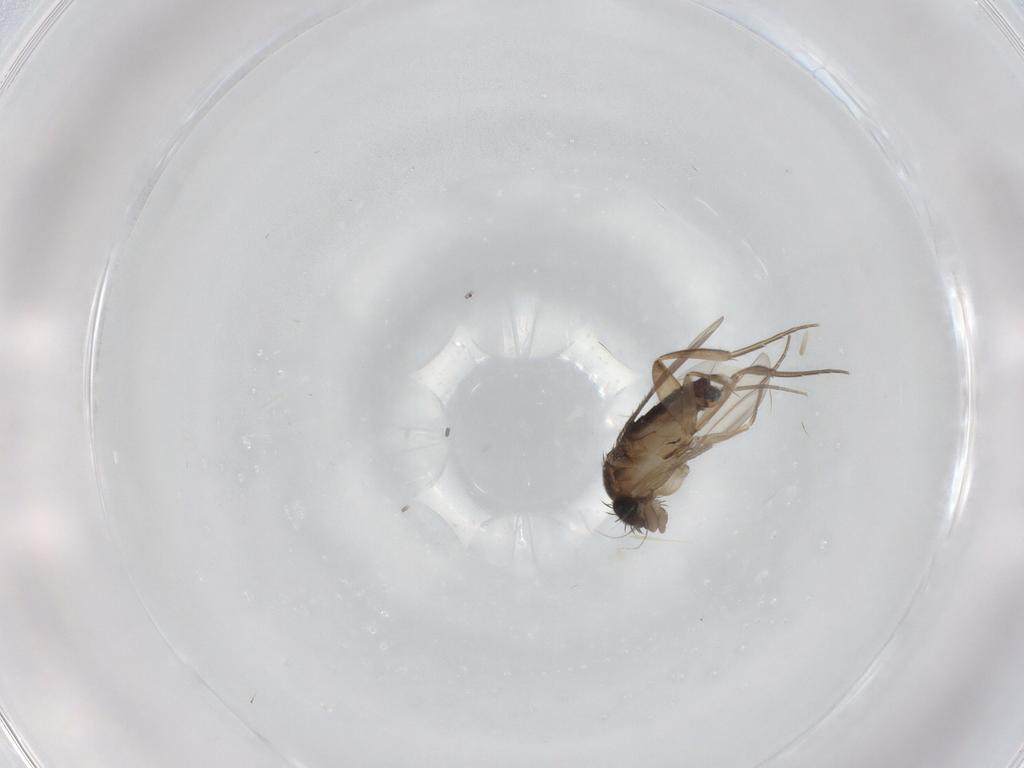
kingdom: Animalia
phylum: Arthropoda
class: Insecta
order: Diptera
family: Phoridae
